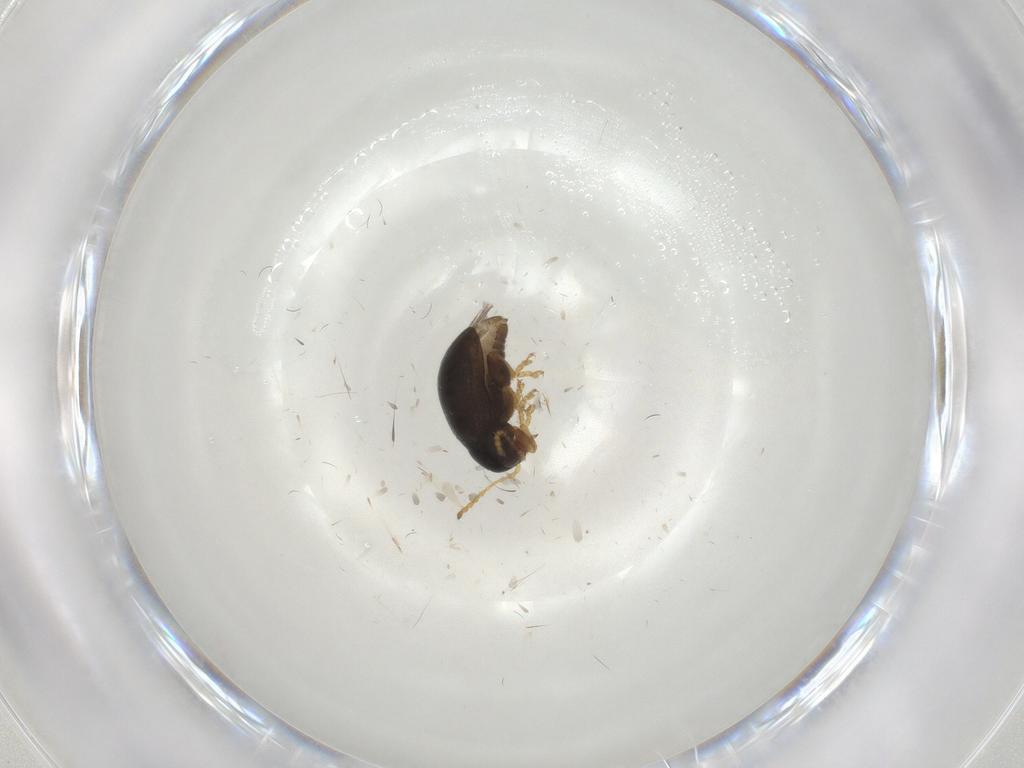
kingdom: Animalia
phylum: Arthropoda
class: Insecta
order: Coleoptera
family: Chrysomelidae
